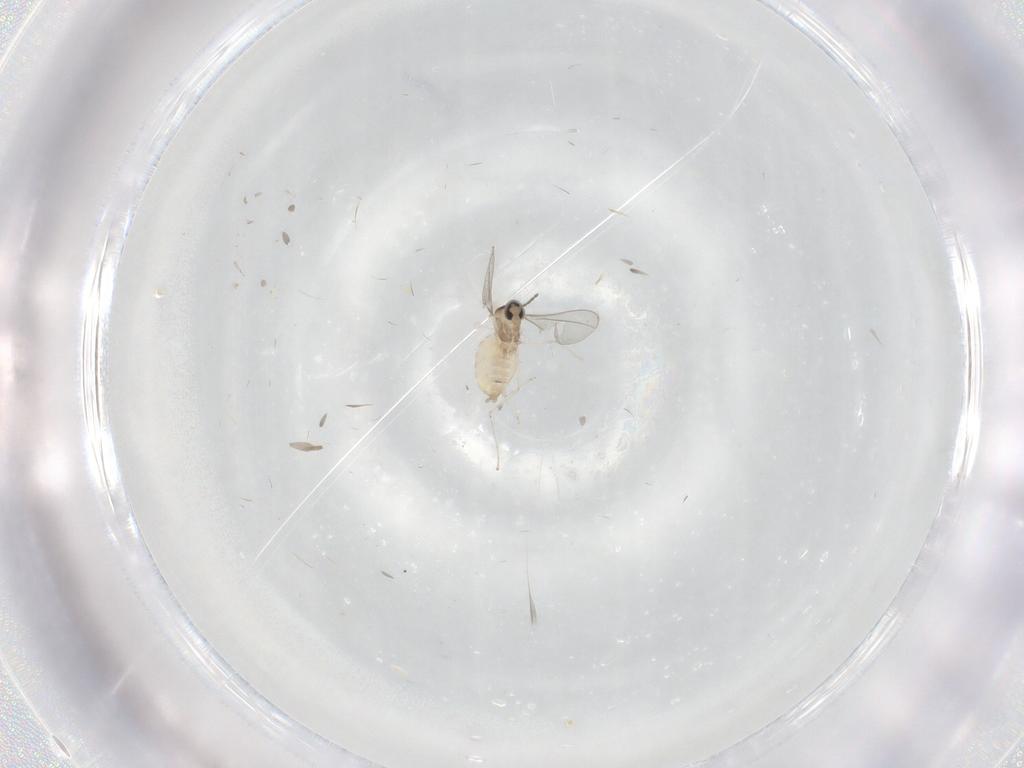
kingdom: Animalia
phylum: Arthropoda
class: Insecta
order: Diptera
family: Cecidomyiidae
